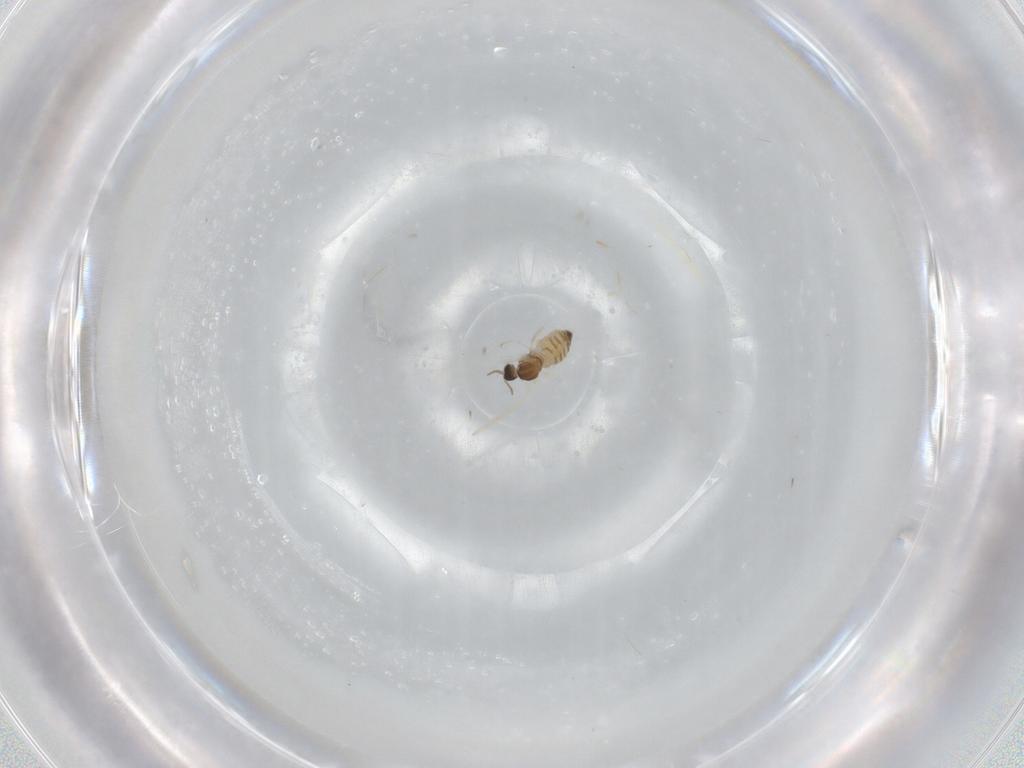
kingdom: Animalia
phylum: Arthropoda
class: Insecta
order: Diptera
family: Cecidomyiidae
